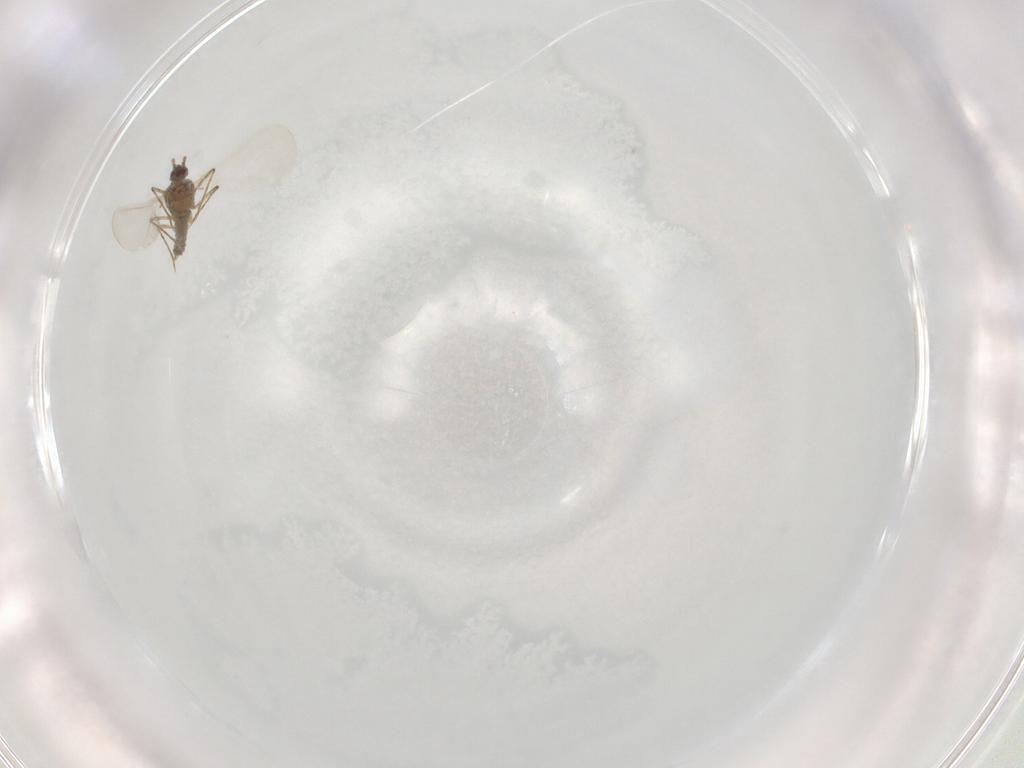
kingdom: Animalia
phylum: Arthropoda
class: Insecta
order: Hemiptera
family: Pseudococcidae
